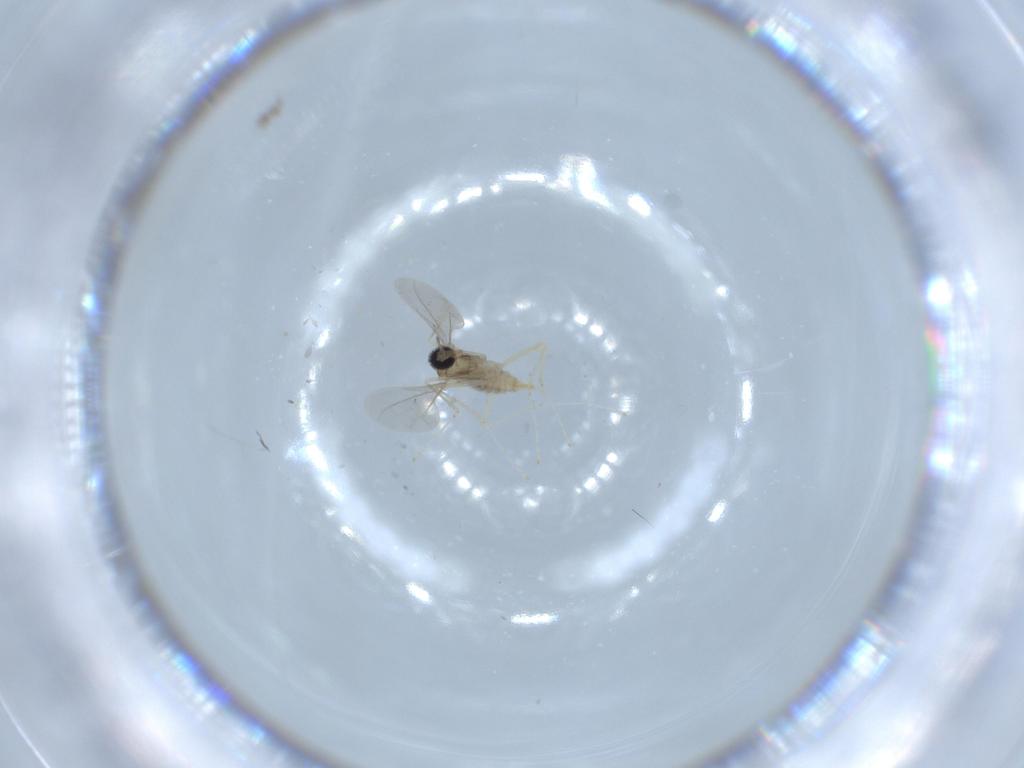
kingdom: Animalia
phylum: Arthropoda
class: Insecta
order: Diptera
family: Cecidomyiidae
